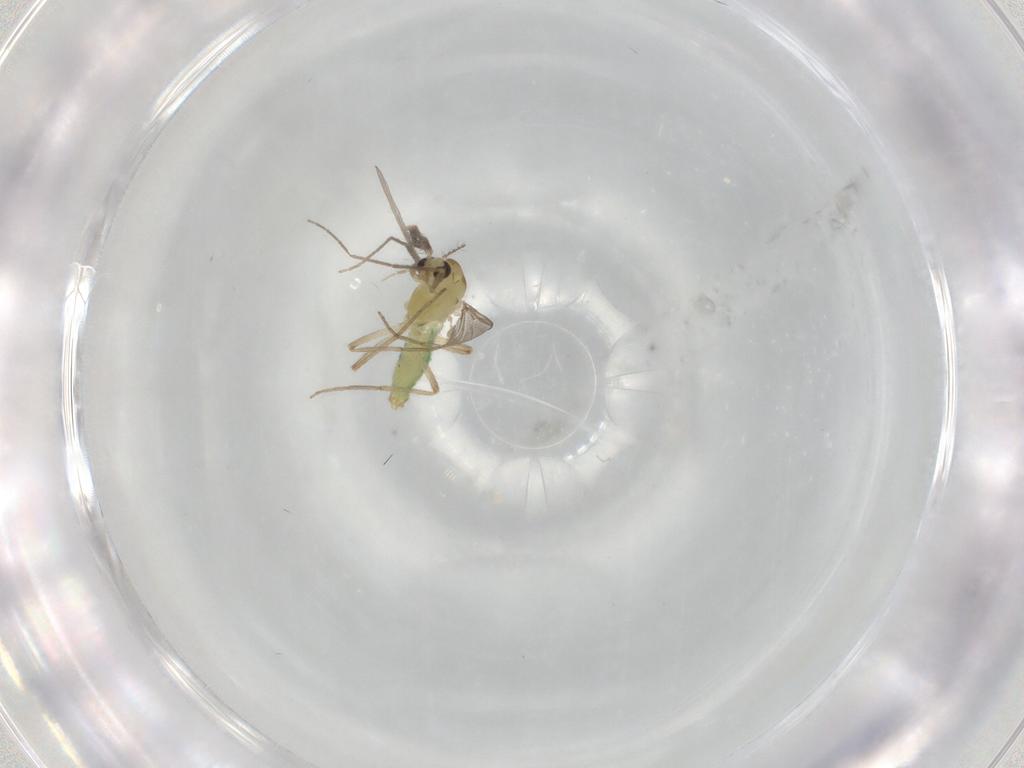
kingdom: Animalia
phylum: Arthropoda
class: Insecta
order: Diptera
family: Chironomidae
